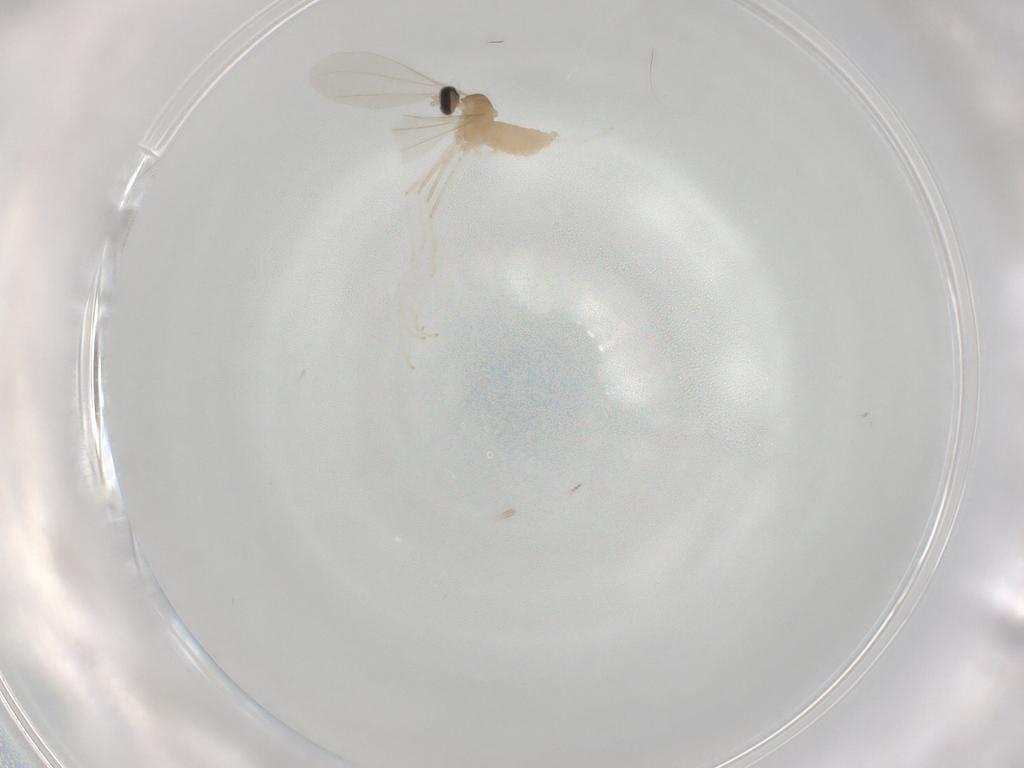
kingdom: Animalia
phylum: Arthropoda
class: Insecta
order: Diptera
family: Cecidomyiidae
